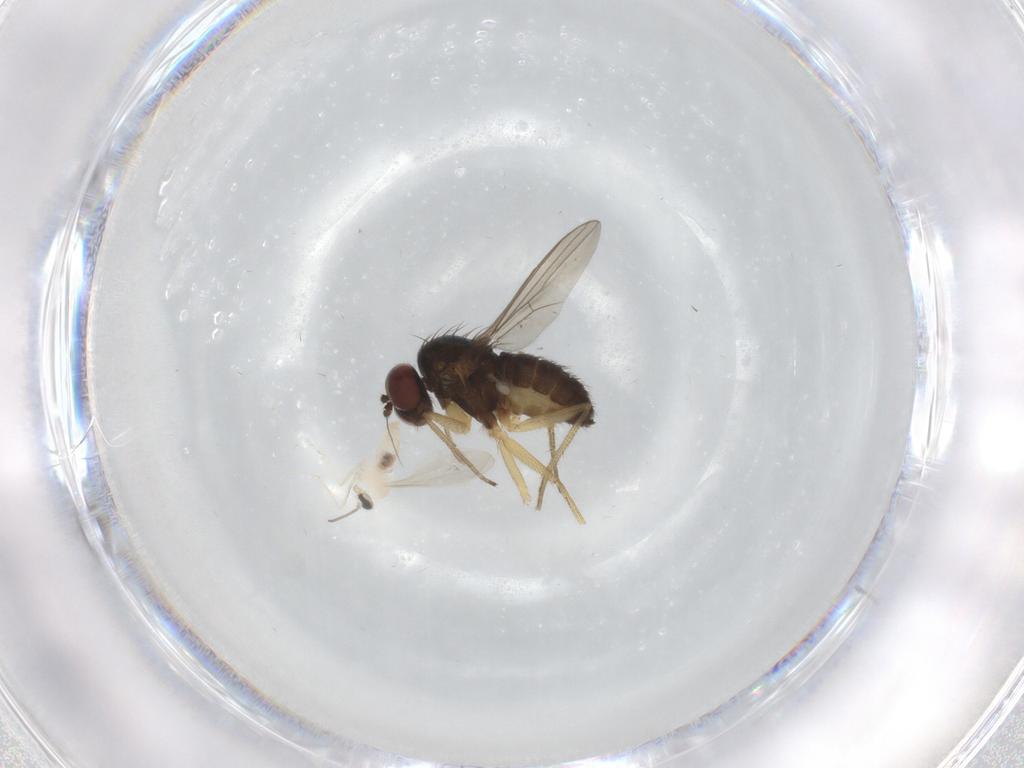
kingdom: Animalia
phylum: Arthropoda
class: Insecta
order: Diptera
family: Dolichopodidae
